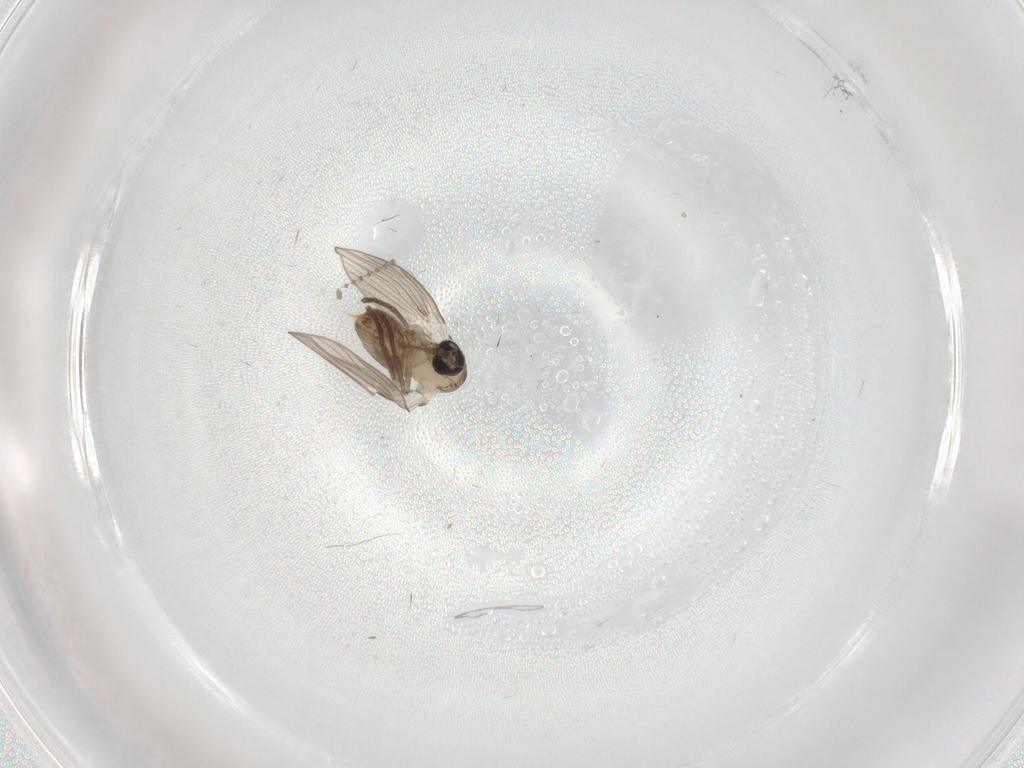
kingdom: Animalia
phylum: Arthropoda
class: Insecta
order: Diptera
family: Psychodidae
